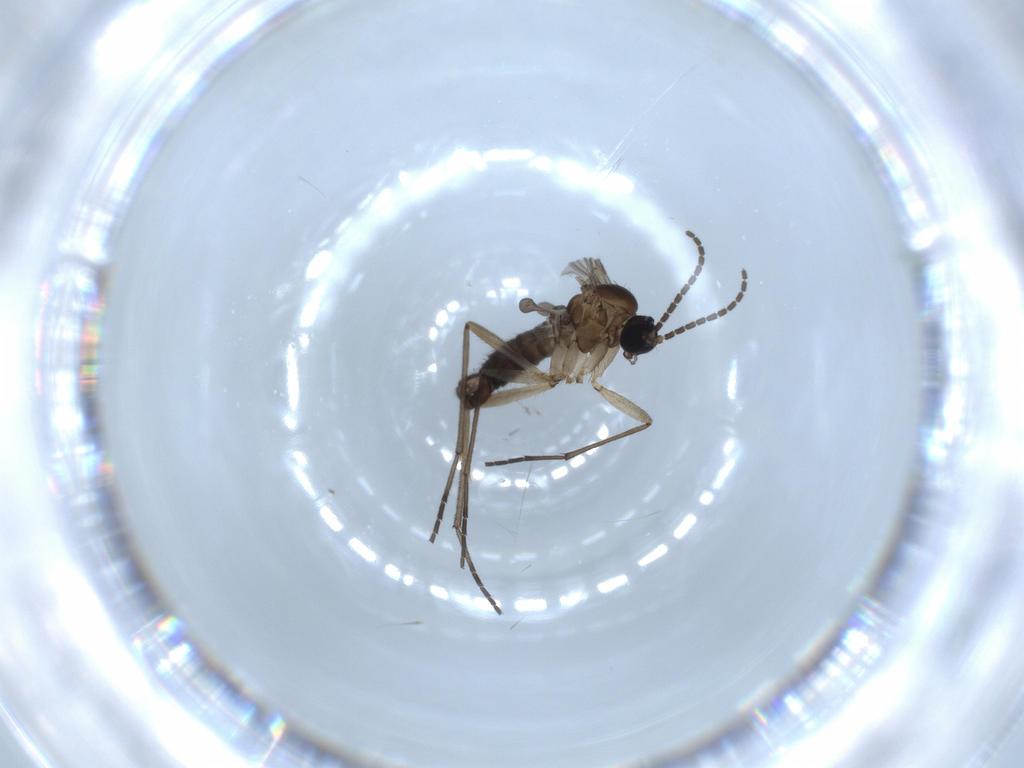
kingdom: Animalia
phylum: Arthropoda
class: Insecta
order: Diptera
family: Sciaridae
